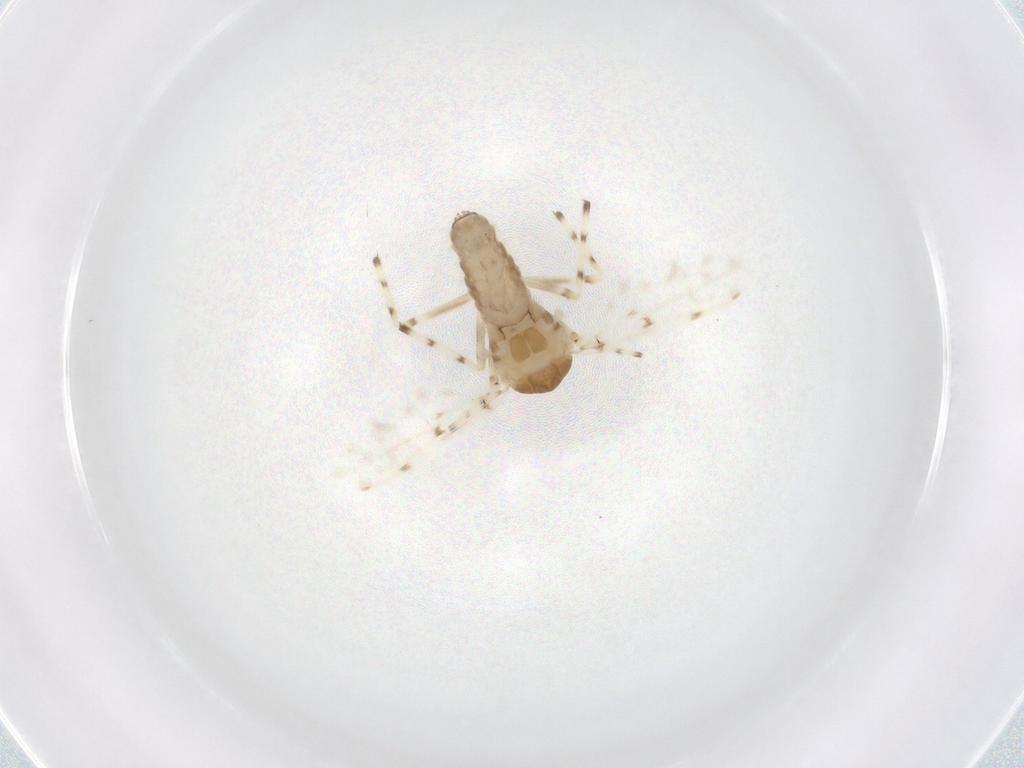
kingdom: Animalia
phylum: Arthropoda
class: Insecta
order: Diptera
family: Chironomidae
